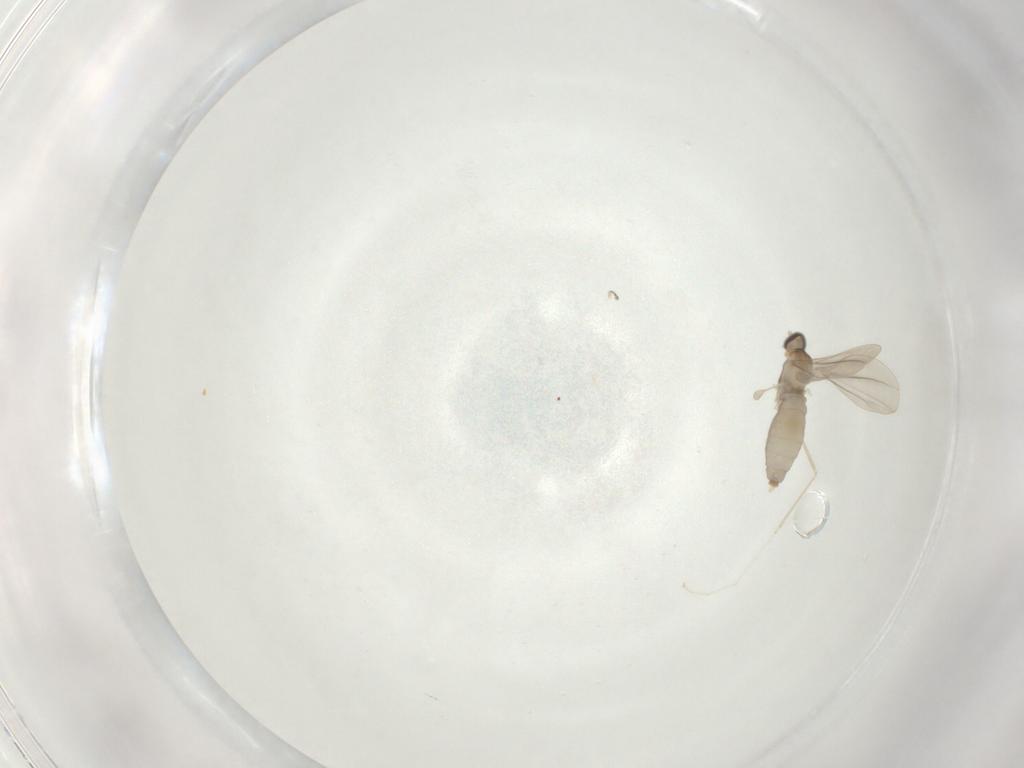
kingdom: Animalia
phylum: Arthropoda
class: Insecta
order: Diptera
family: Cecidomyiidae
